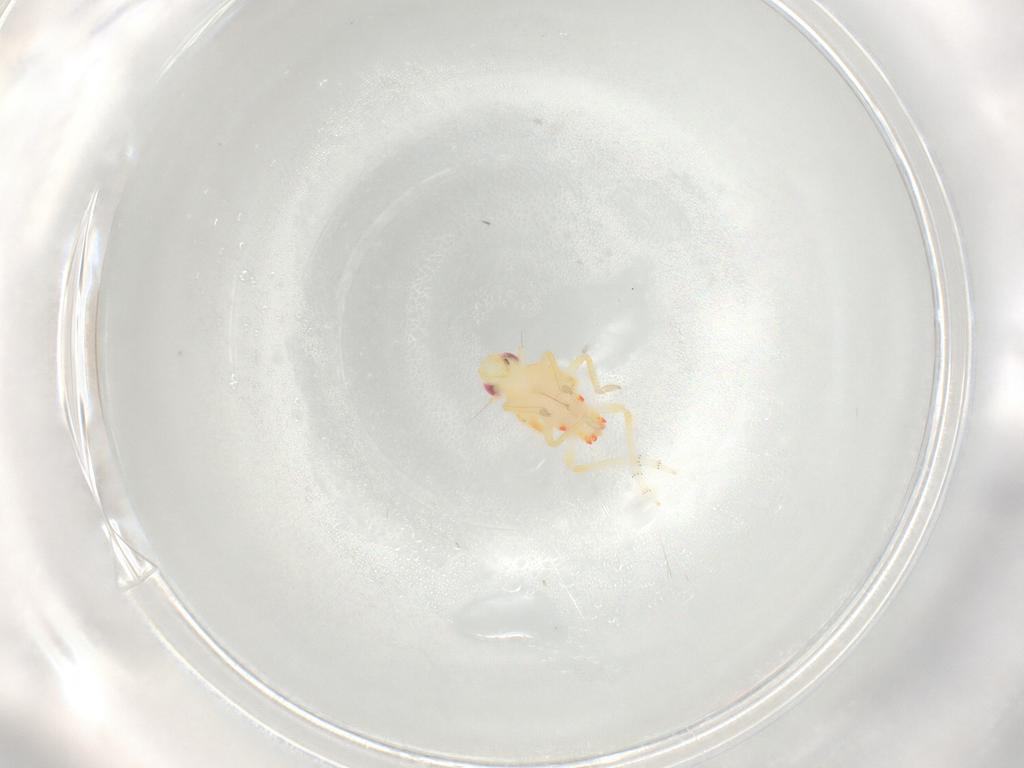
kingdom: Animalia
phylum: Arthropoda
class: Insecta
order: Hemiptera
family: Tropiduchidae
